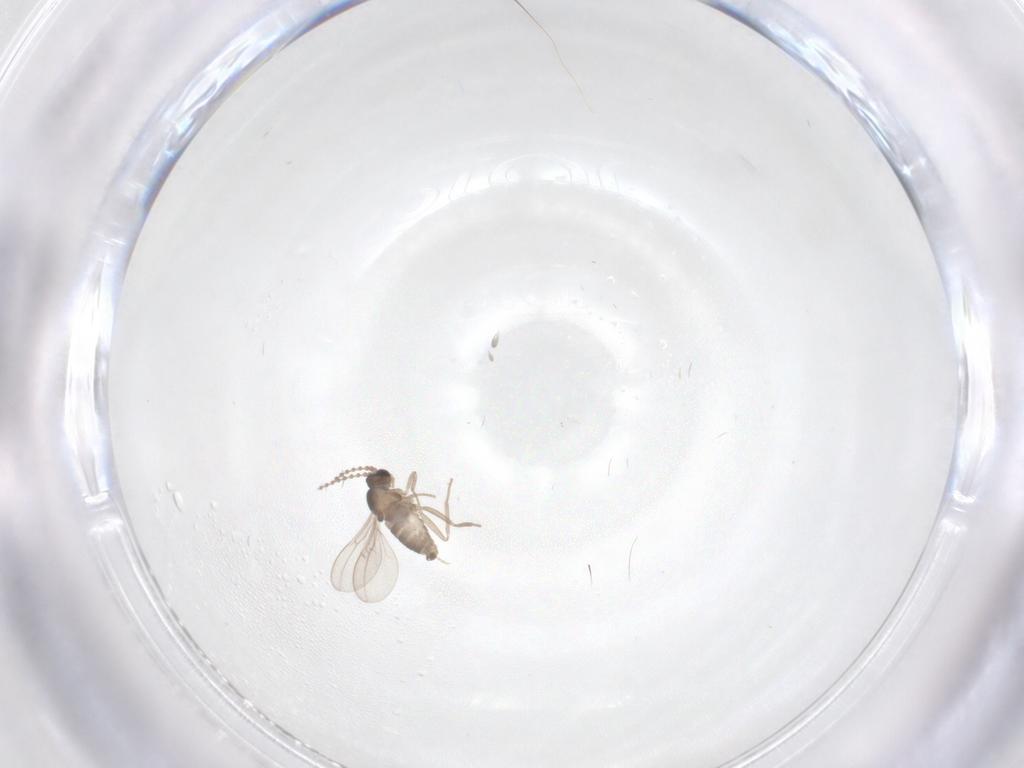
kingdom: Animalia
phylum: Arthropoda
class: Insecta
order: Diptera
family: Cecidomyiidae
